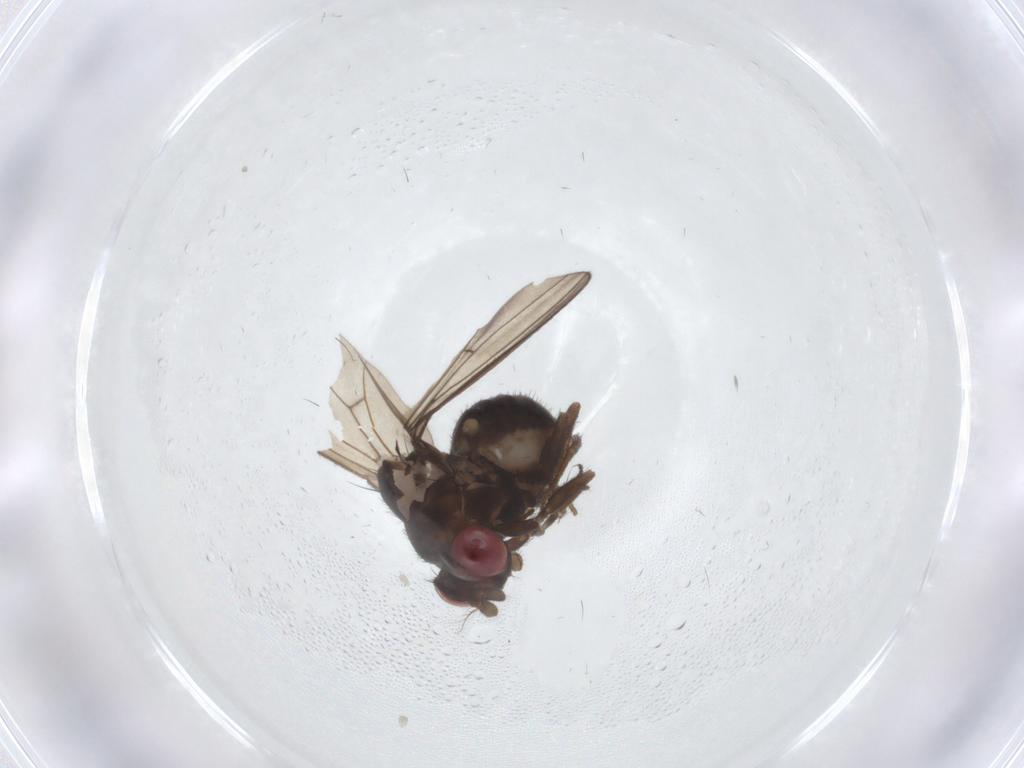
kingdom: Animalia
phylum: Arthropoda
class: Insecta
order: Diptera
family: Drosophilidae
